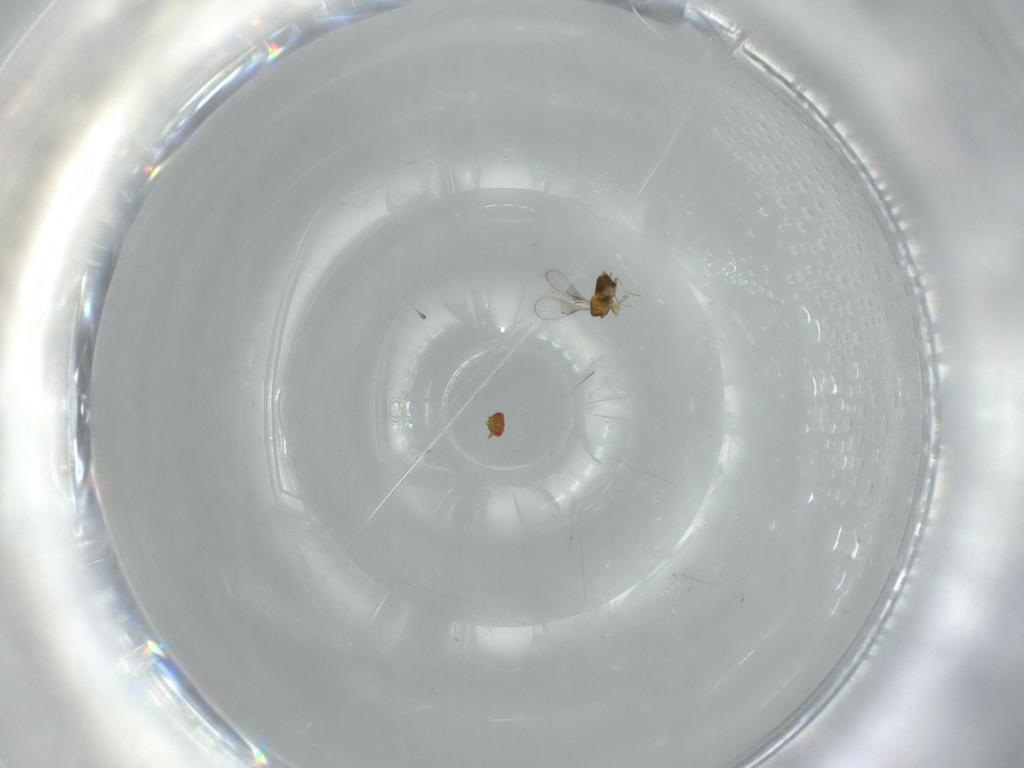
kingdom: Animalia
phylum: Arthropoda
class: Insecta
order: Hymenoptera
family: Trichogrammatidae
